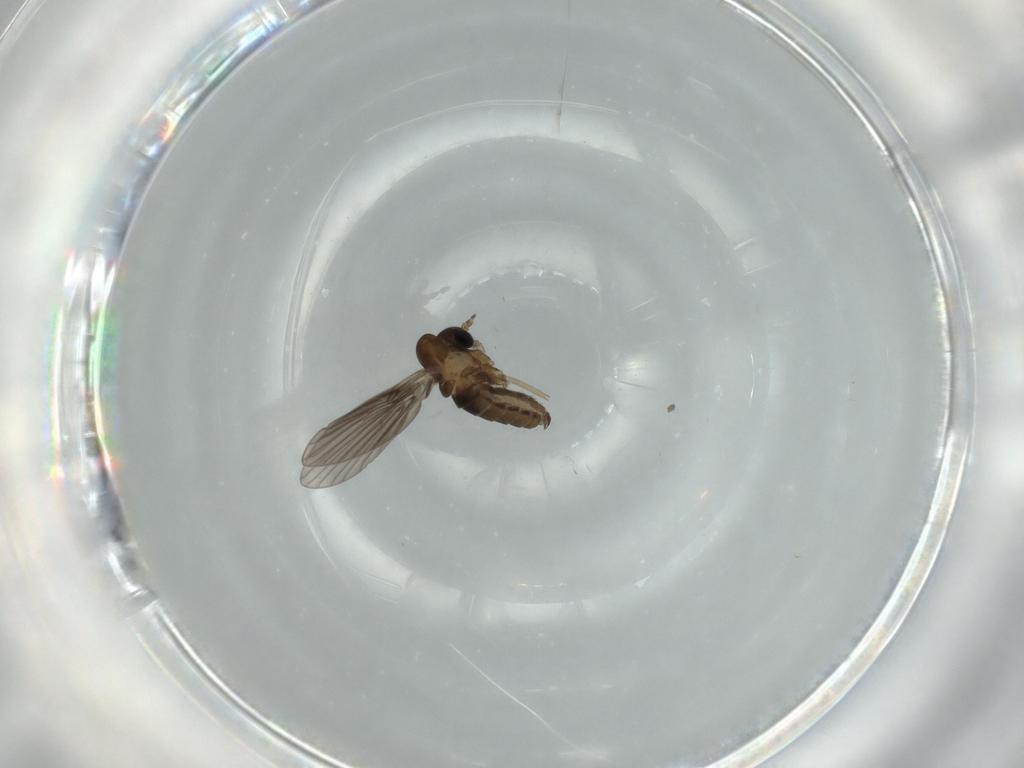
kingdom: Animalia
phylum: Arthropoda
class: Insecta
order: Diptera
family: Psychodidae
